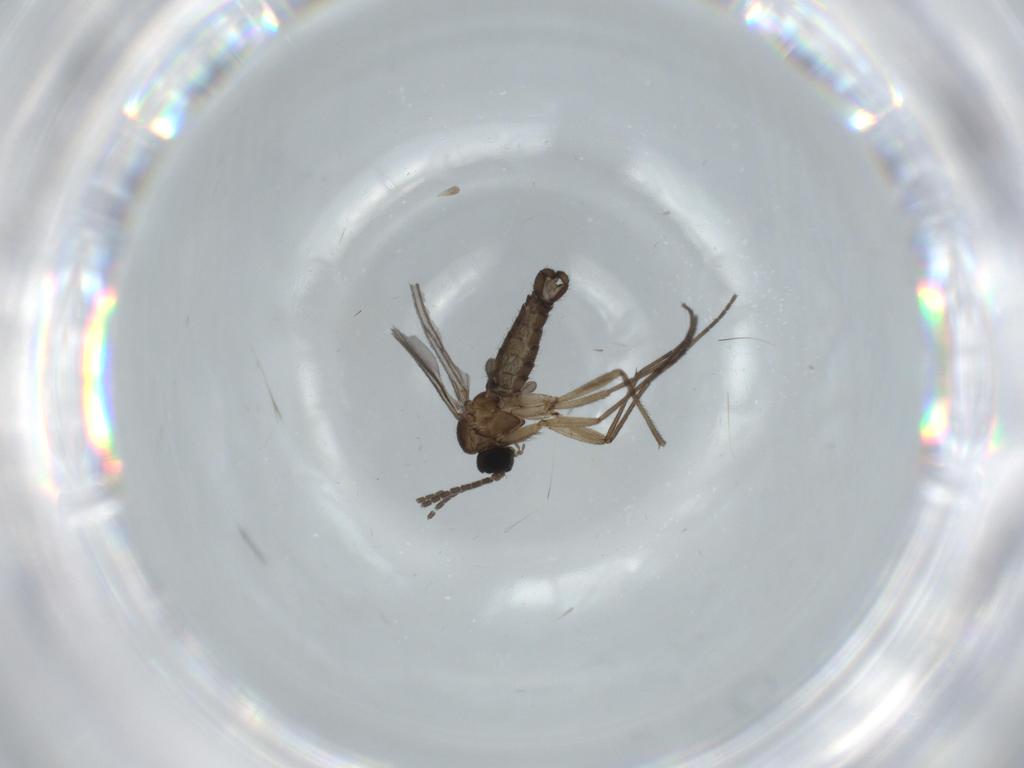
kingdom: Animalia
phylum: Arthropoda
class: Insecta
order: Diptera
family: Sciaridae
